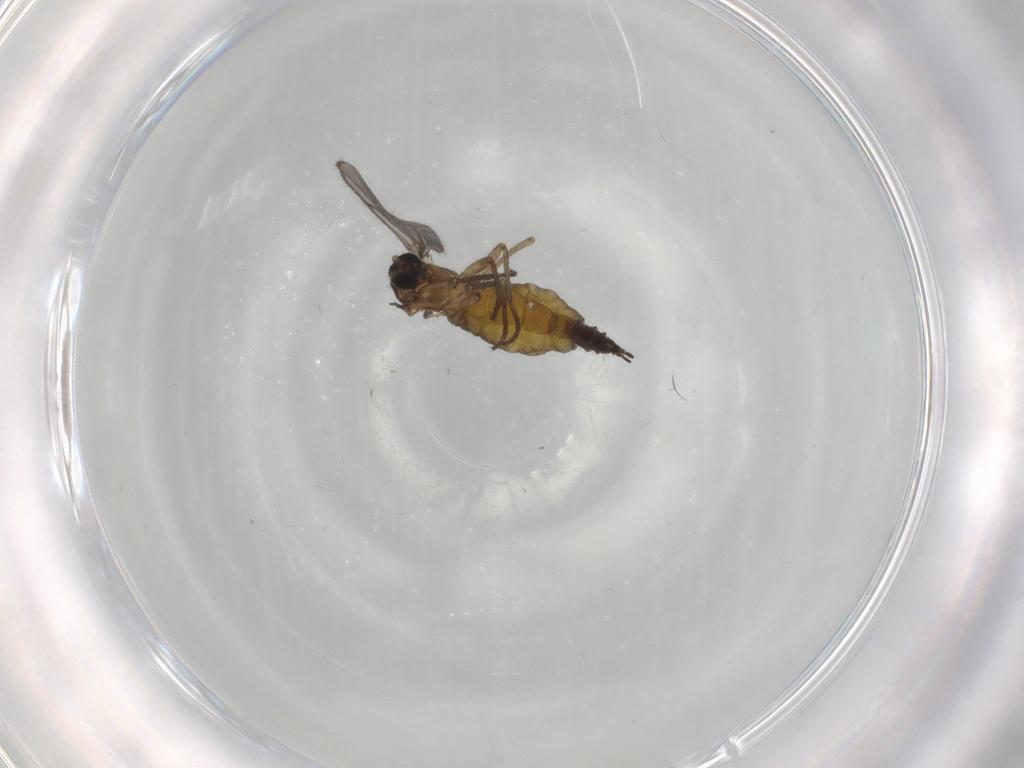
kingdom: Animalia
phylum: Arthropoda
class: Insecta
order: Diptera
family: Sciaridae
